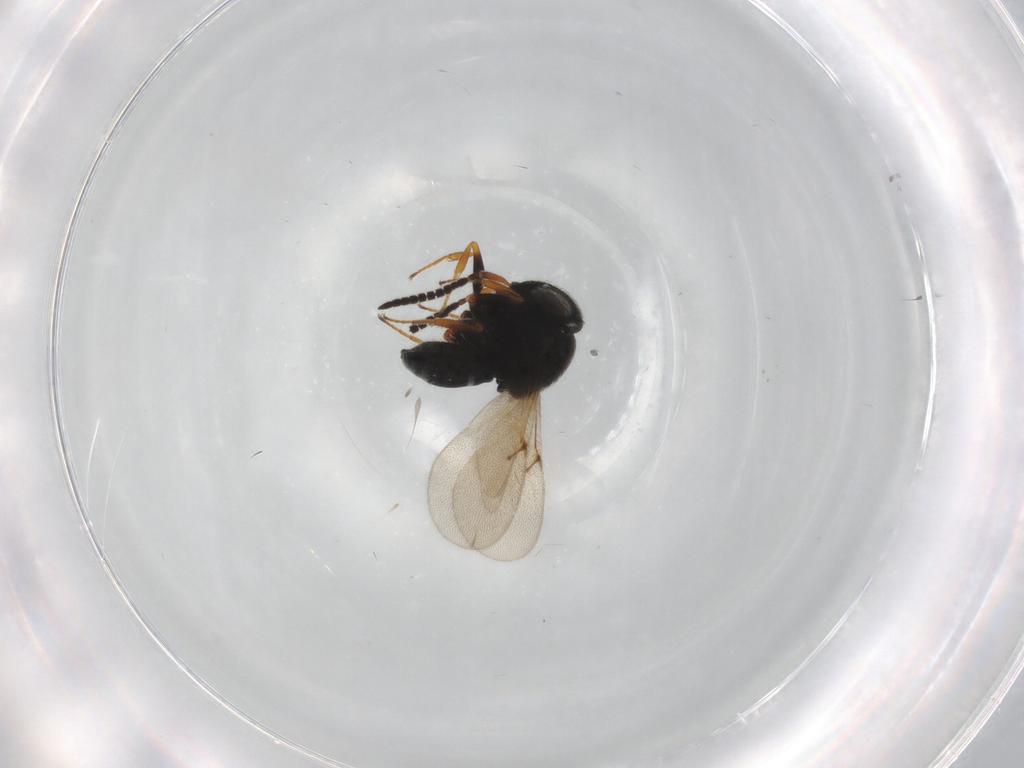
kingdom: Animalia
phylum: Arthropoda
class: Insecta
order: Hymenoptera
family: Scelionidae
